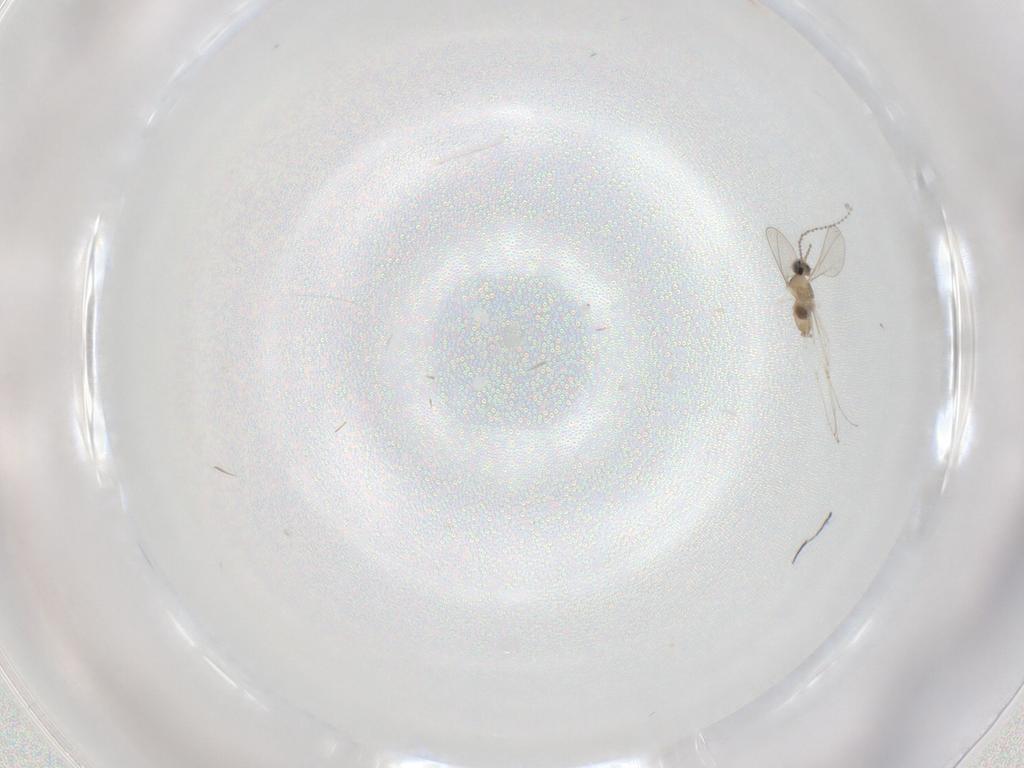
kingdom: Animalia
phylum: Arthropoda
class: Insecta
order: Diptera
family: Cecidomyiidae
